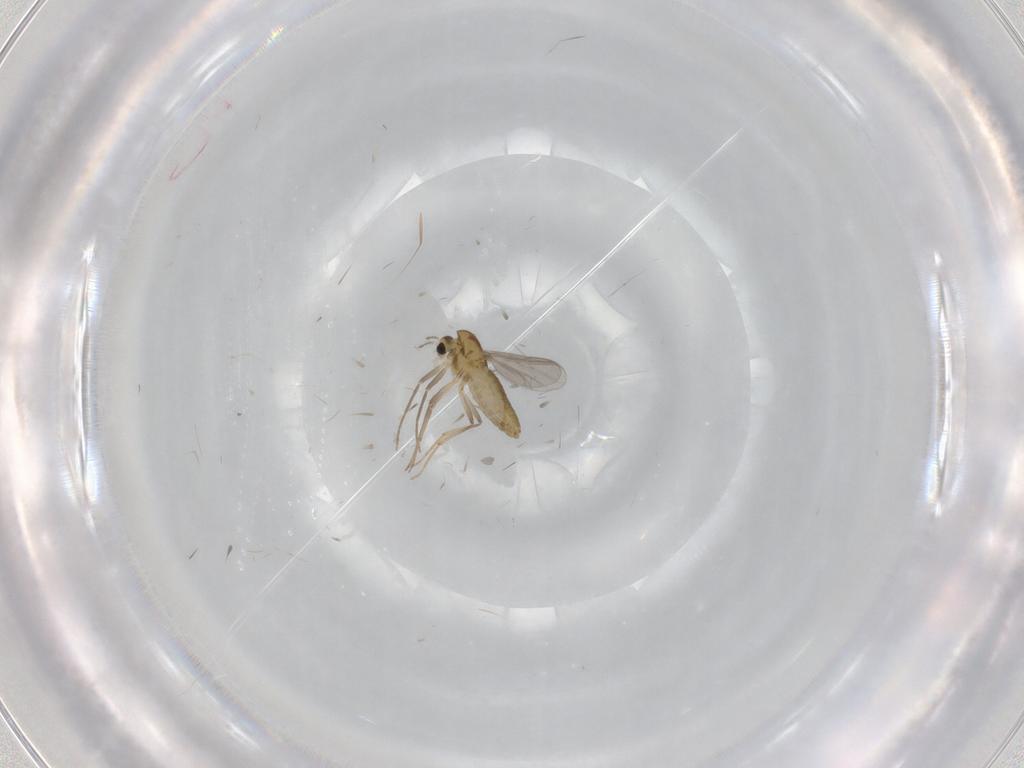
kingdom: Animalia
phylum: Arthropoda
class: Insecta
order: Diptera
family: Chironomidae
